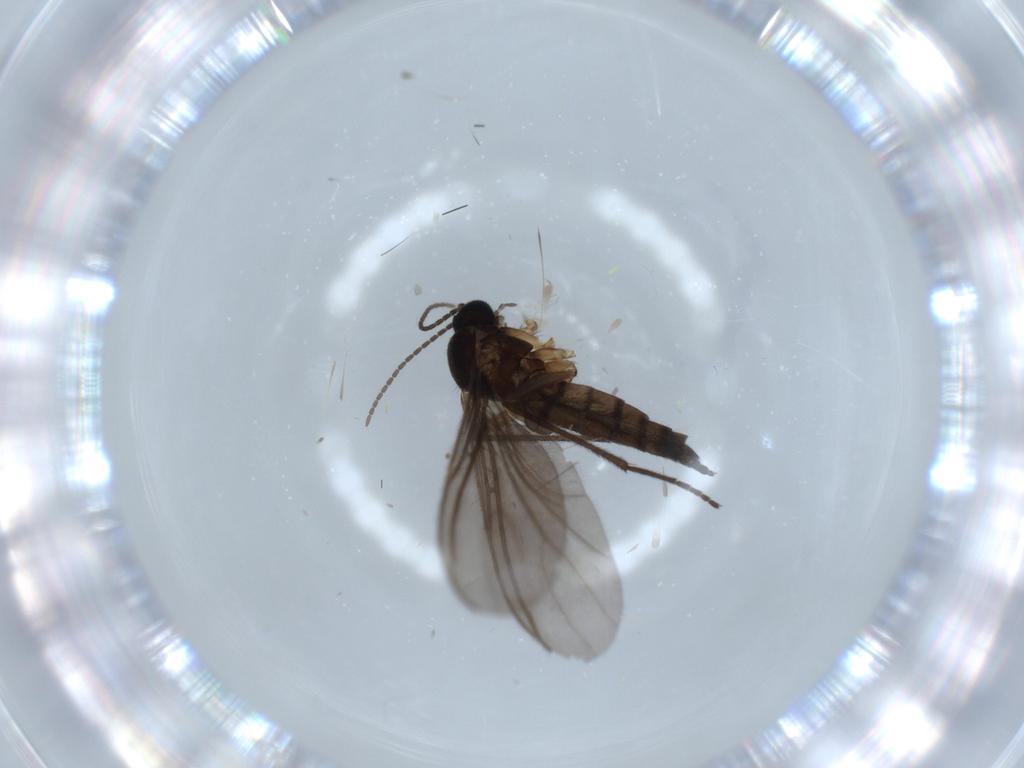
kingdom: Animalia
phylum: Arthropoda
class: Insecta
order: Diptera
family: Sciaridae
